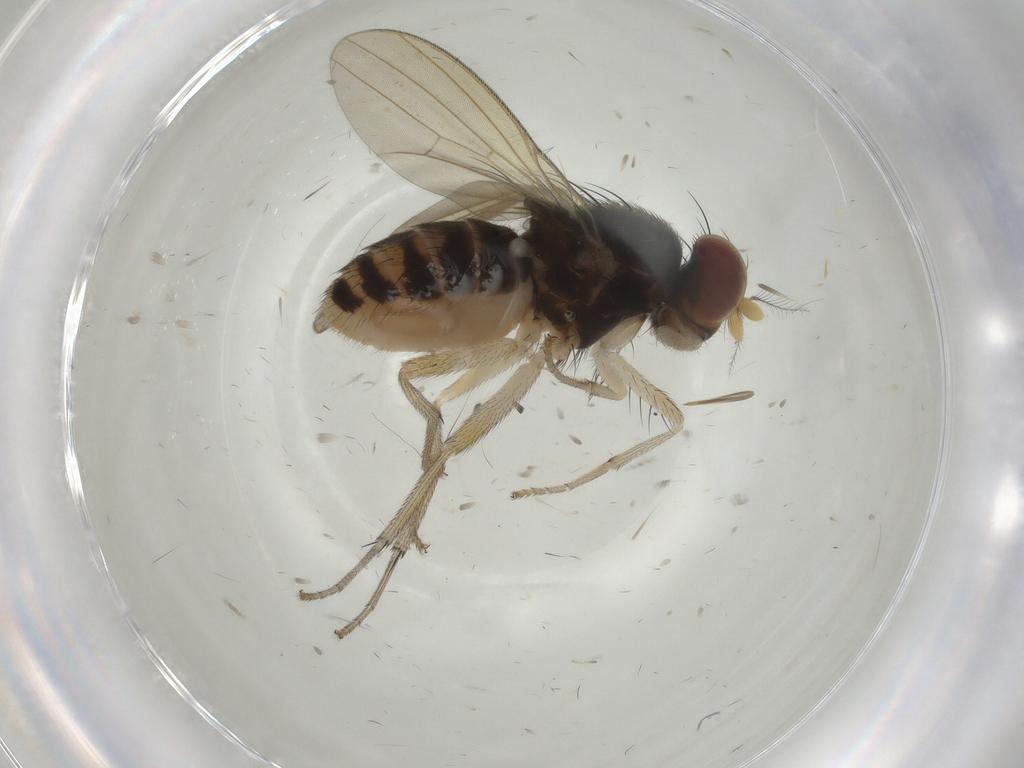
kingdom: Animalia
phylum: Arthropoda
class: Insecta
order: Diptera
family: Lauxaniidae
